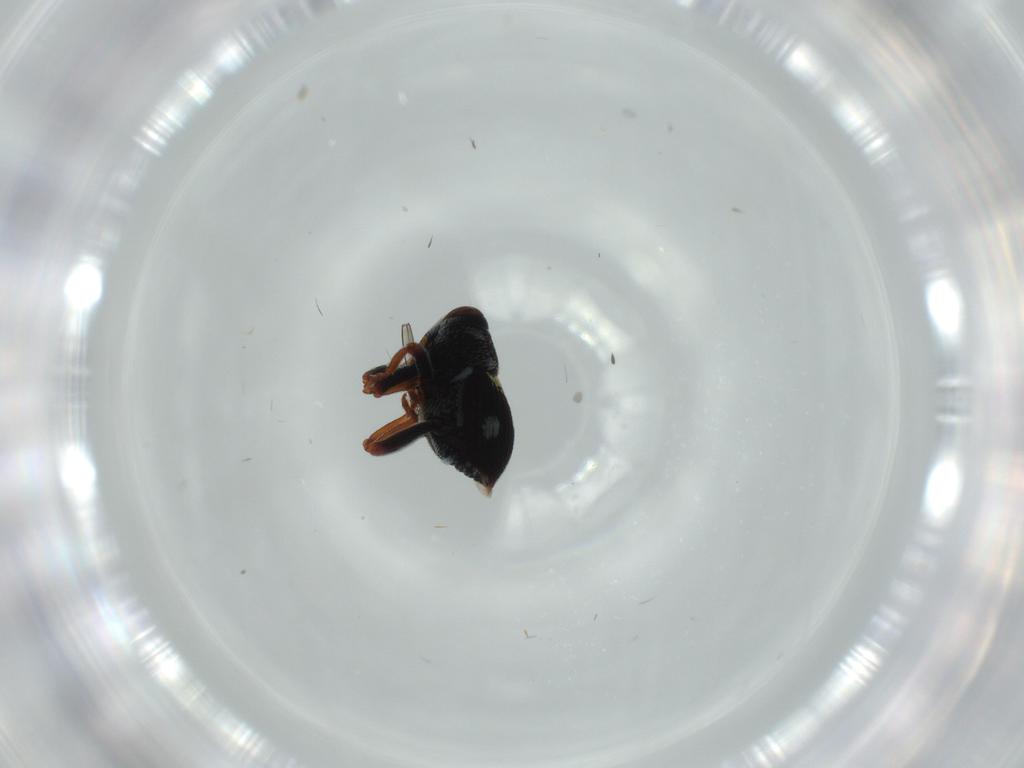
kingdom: Animalia
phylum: Arthropoda
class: Insecta
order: Coleoptera
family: Curculionidae
